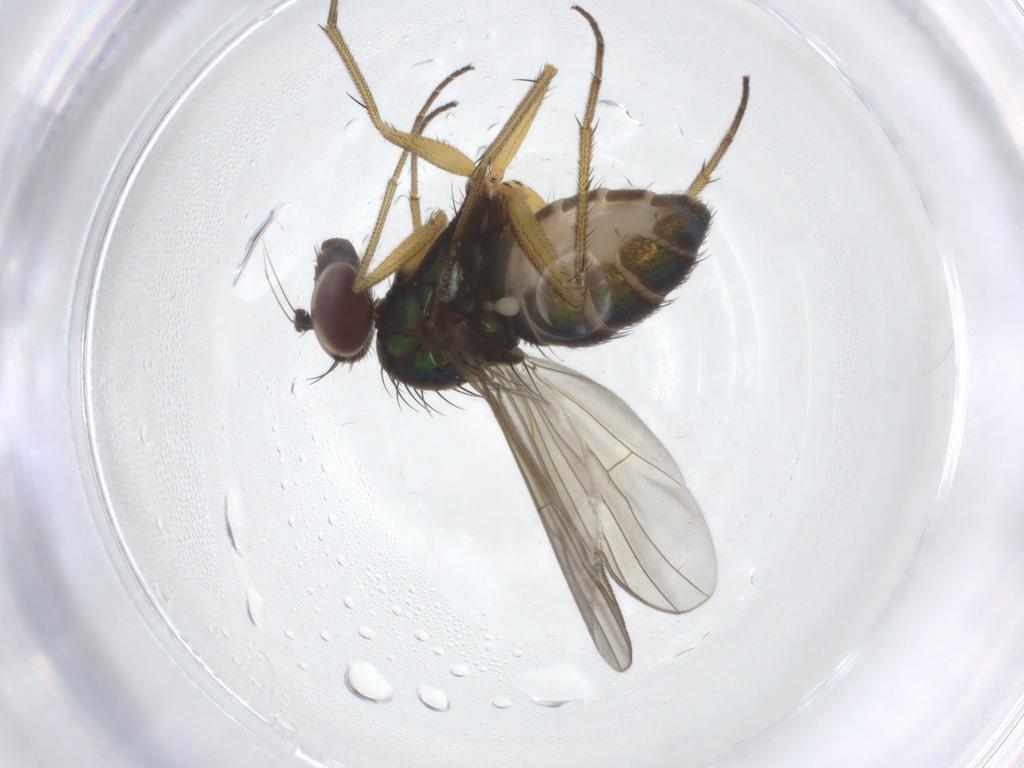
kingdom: Animalia
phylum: Arthropoda
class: Insecta
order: Diptera
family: Dolichopodidae
